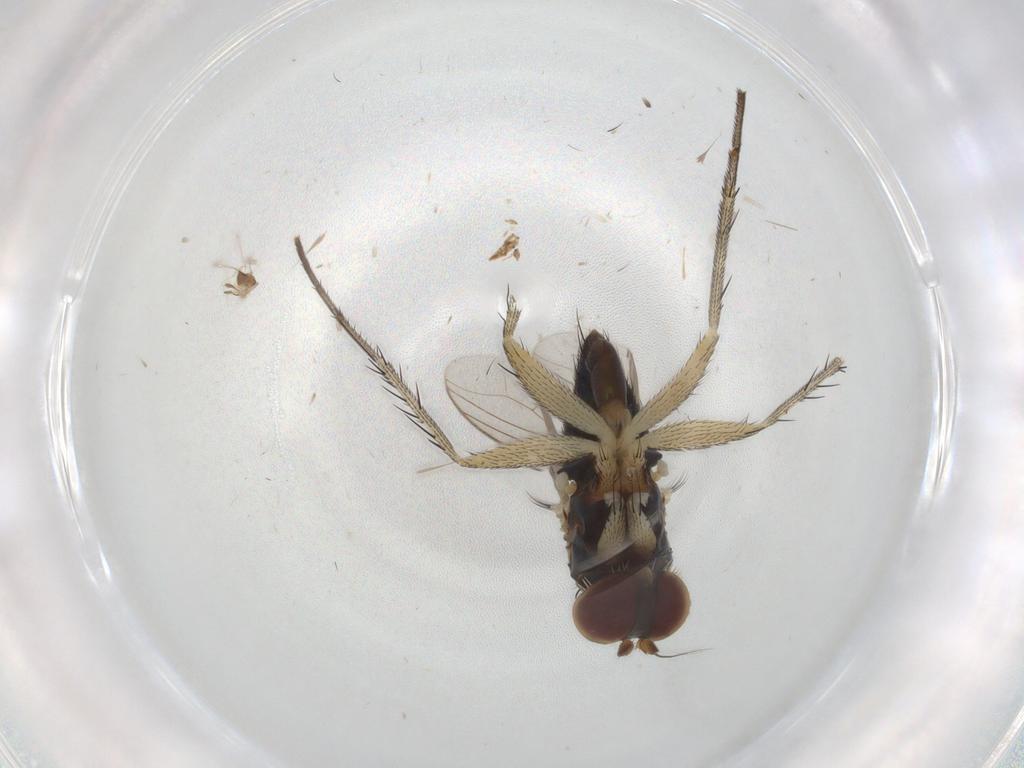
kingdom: Animalia
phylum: Arthropoda
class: Insecta
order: Diptera
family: Dolichopodidae
